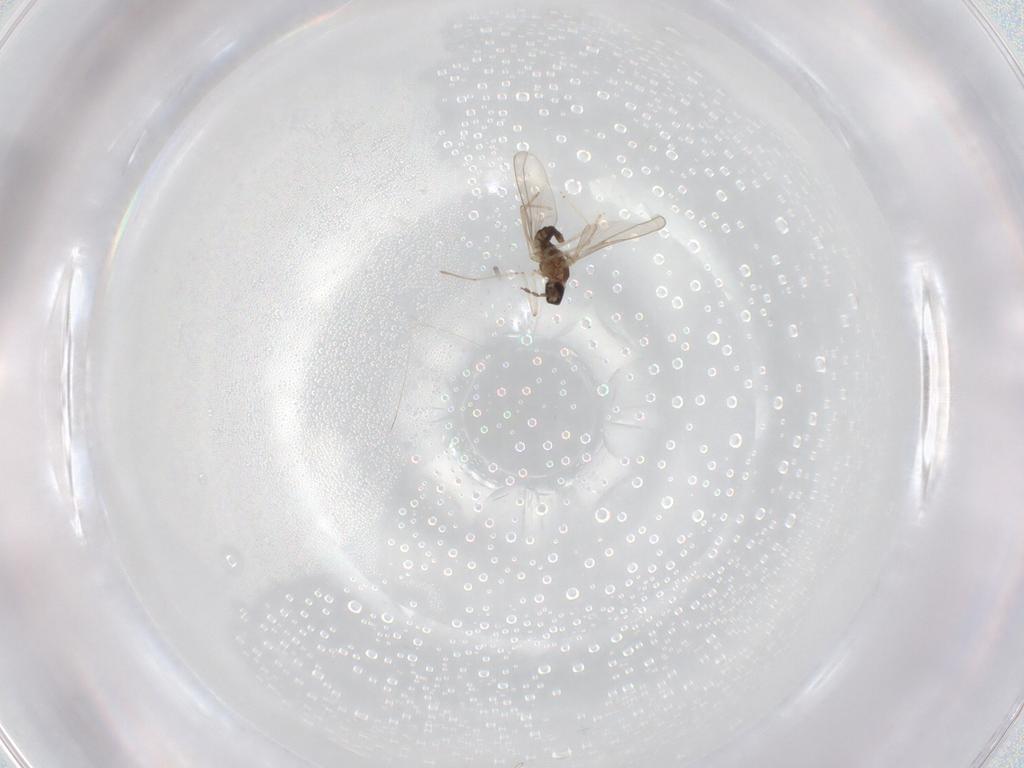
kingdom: Animalia
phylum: Arthropoda
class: Insecta
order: Diptera
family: Cecidomyiidae
